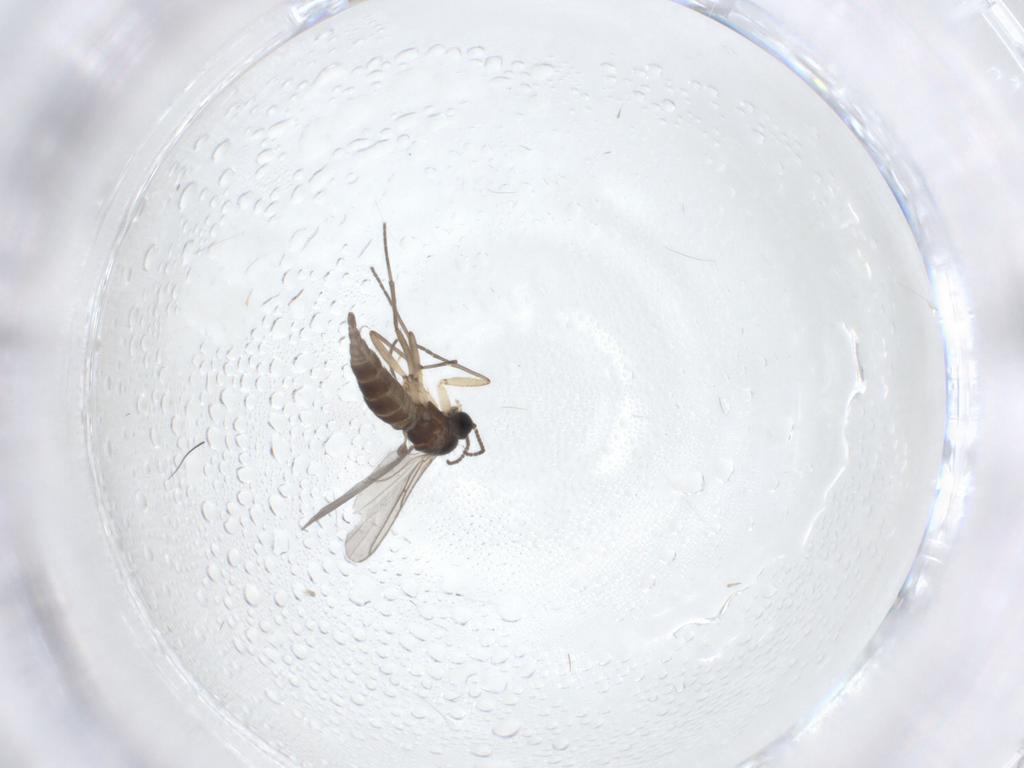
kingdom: Animalia
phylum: Arthropoda
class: Insecta
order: Diptera
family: Sciaridae
